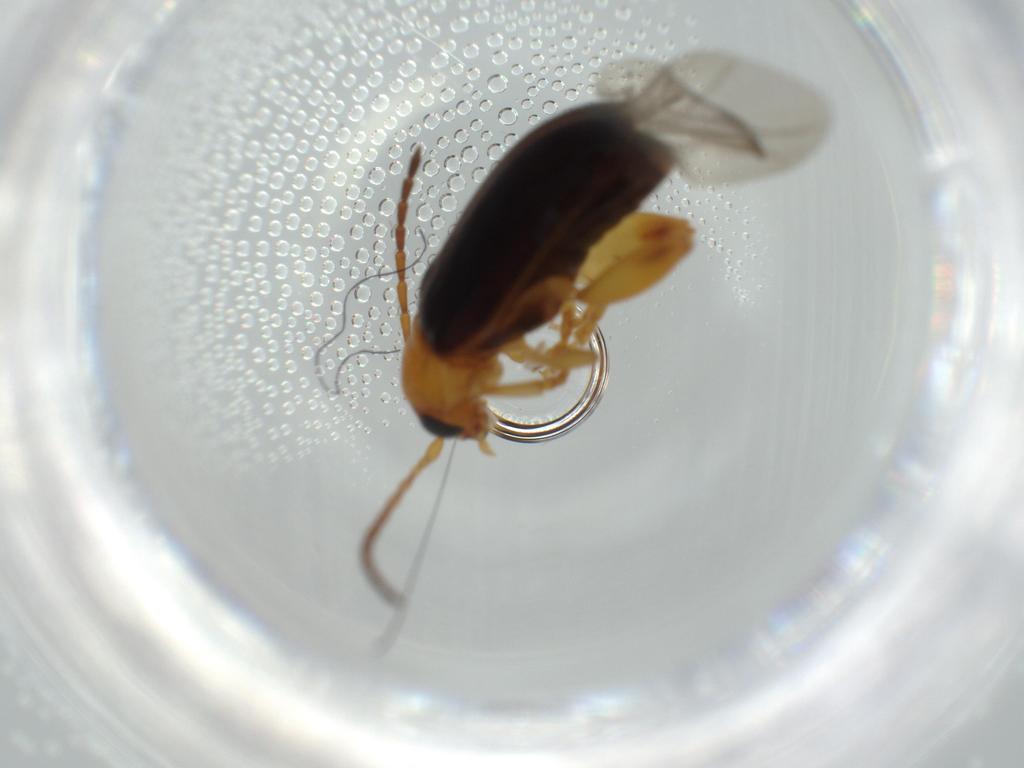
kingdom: Animalia
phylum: Arthropoda
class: Insecta
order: Coleoptera
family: Chrysomelidae
